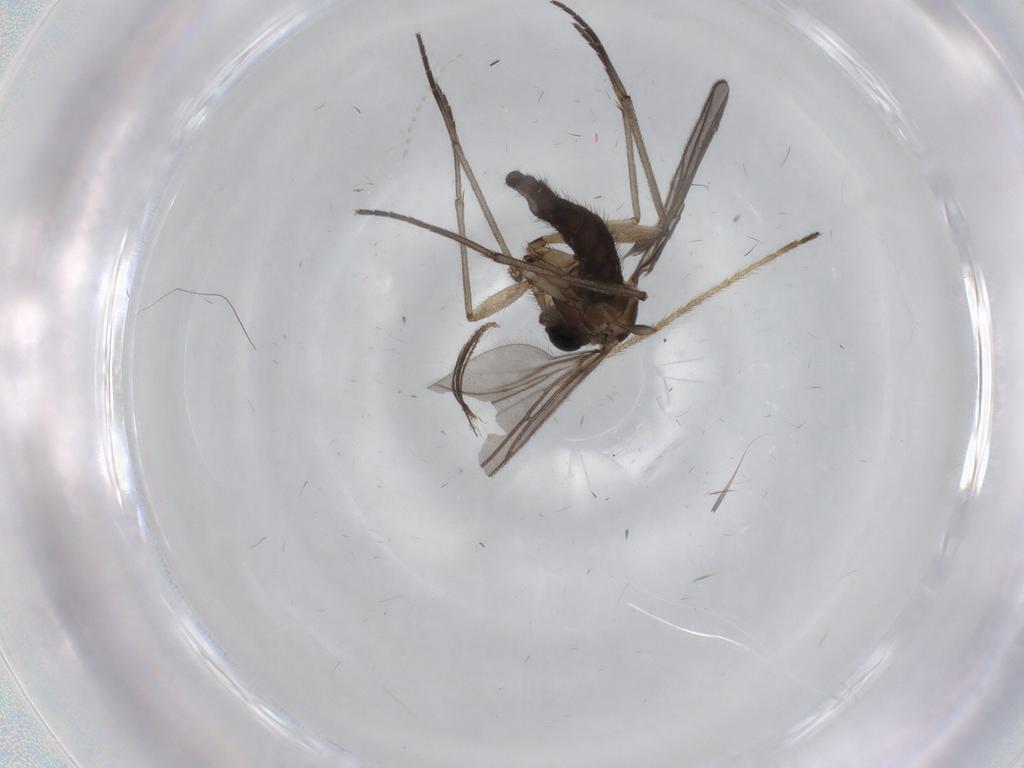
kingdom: Animalia
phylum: Arthropoda
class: Insecta
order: Diptera
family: Sciaridae
